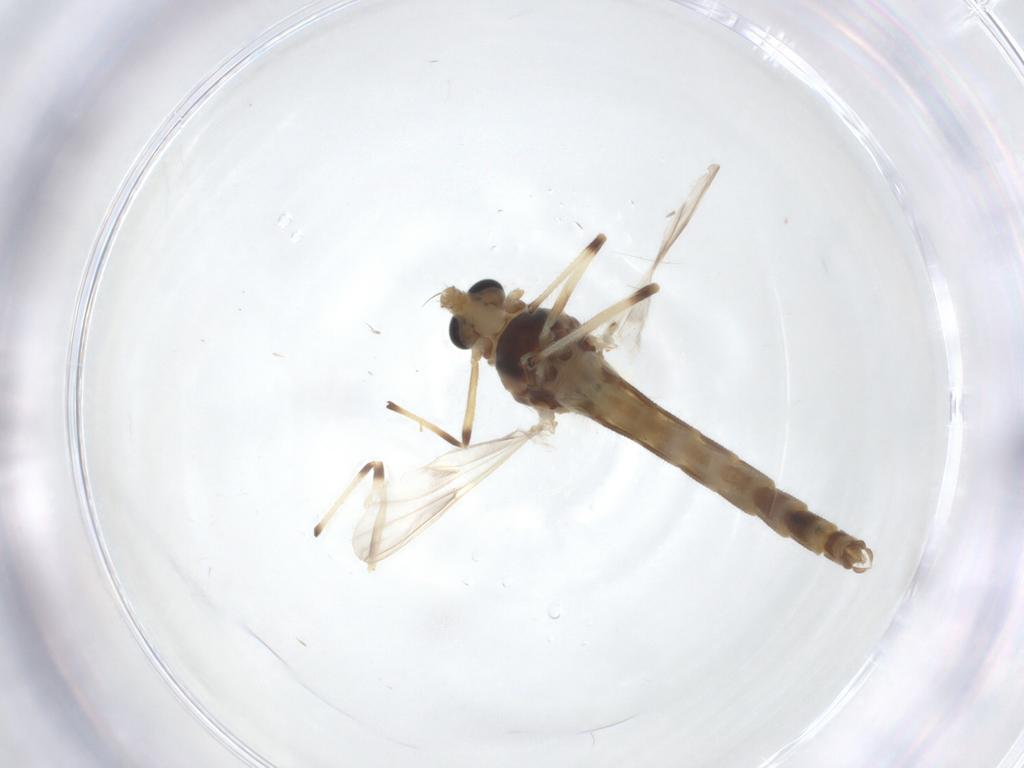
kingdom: Animalia
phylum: Arthropoda
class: Insecta
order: Diptera
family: Chironomidae
